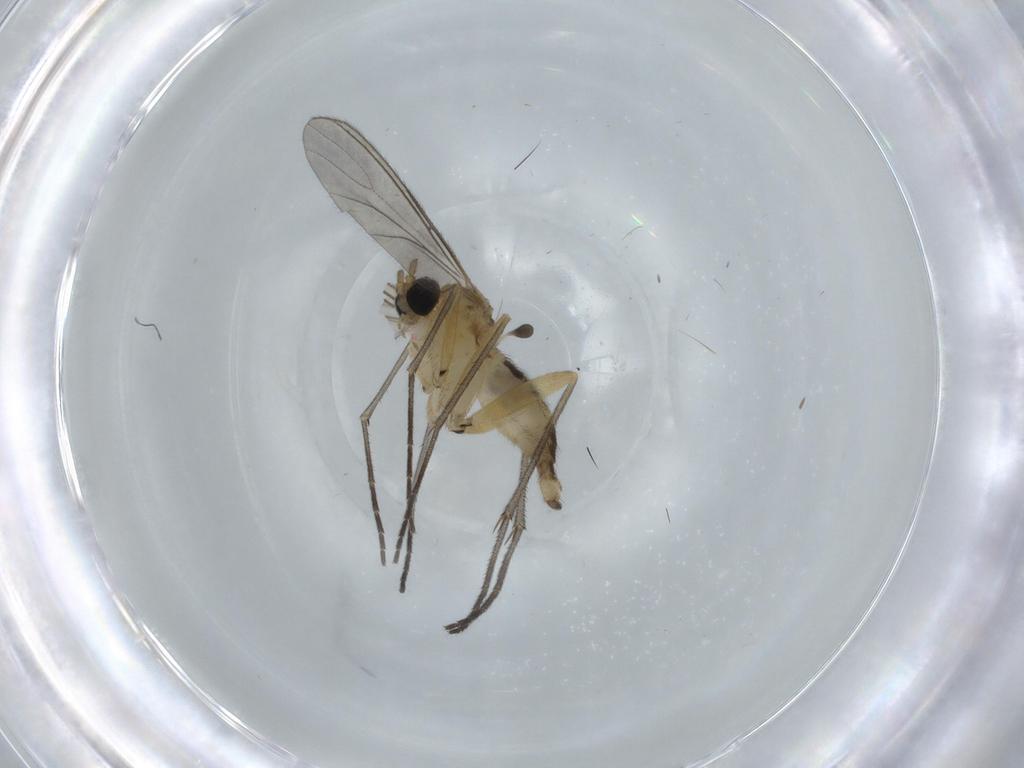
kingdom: Animalia
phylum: Arthropoda
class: Insecta
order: Diptera
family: Sciaridae
